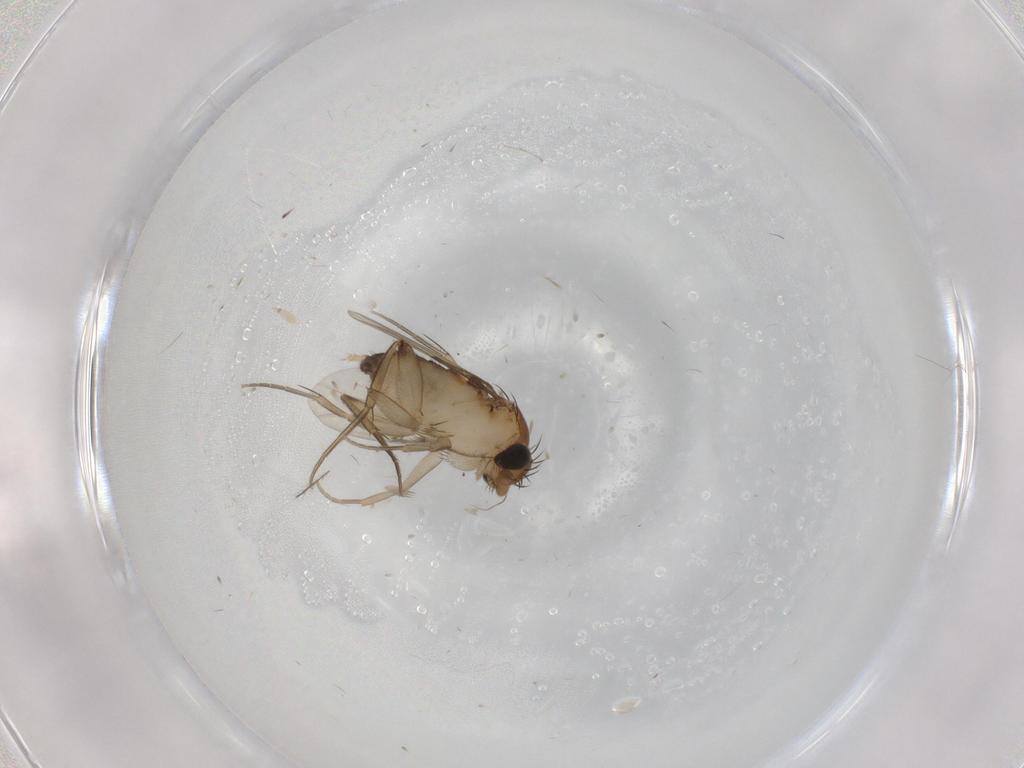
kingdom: Animalia
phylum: Arthropoda
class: Insecta
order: Diptera
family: Phoridae
